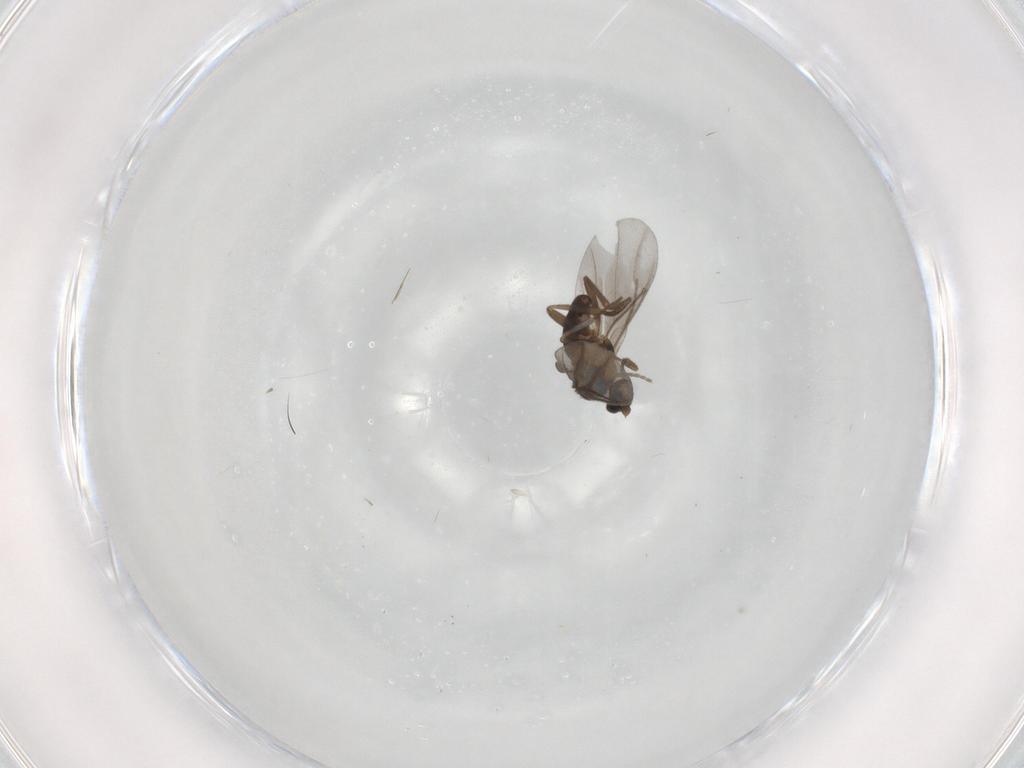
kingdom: Animalia
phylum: Arthropoda
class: Insecta
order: Diptera
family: Phoridae
